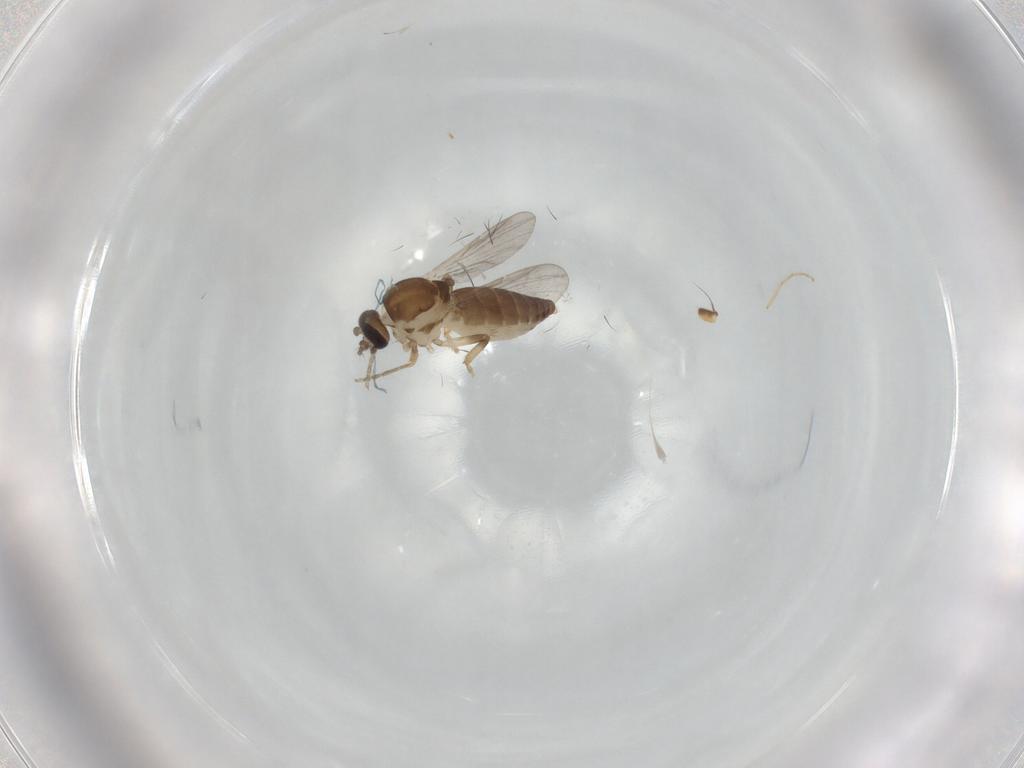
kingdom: Animalia
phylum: Arthropoda
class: Insecta
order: Diptera
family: Ceratopogonidae
